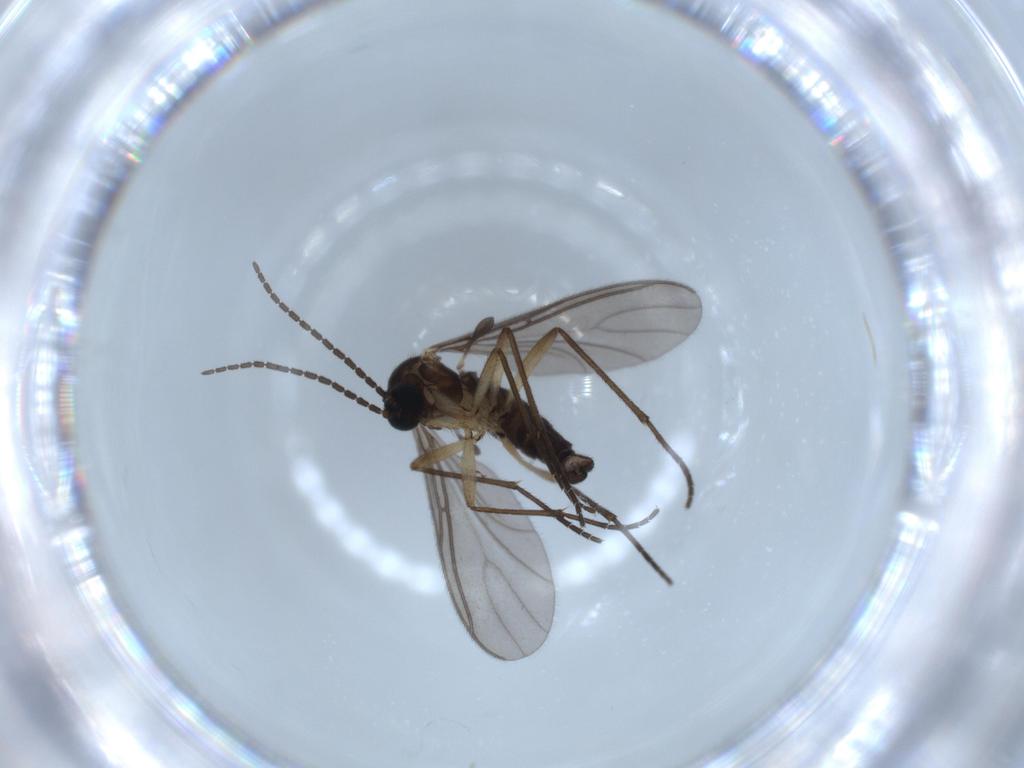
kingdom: Animalia
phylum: Arthropoda
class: Insecta
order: Diptera
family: Sciaridae
